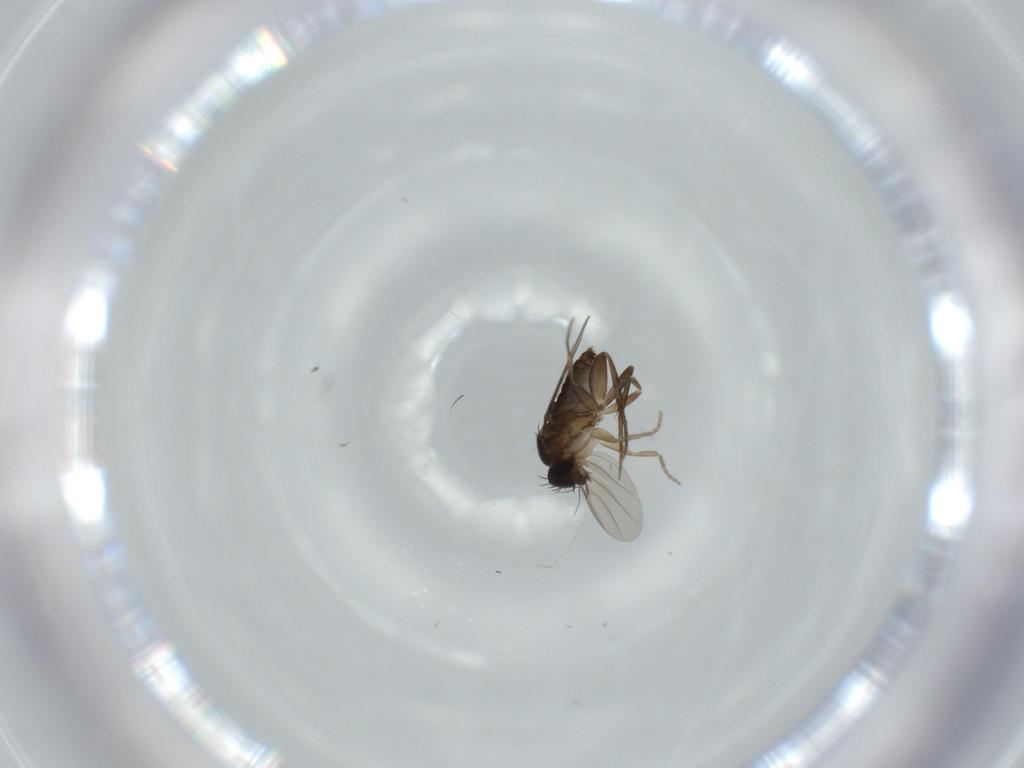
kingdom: Animalia
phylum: Arthropoda
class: Insecta
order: Diptera
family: Phoridae
